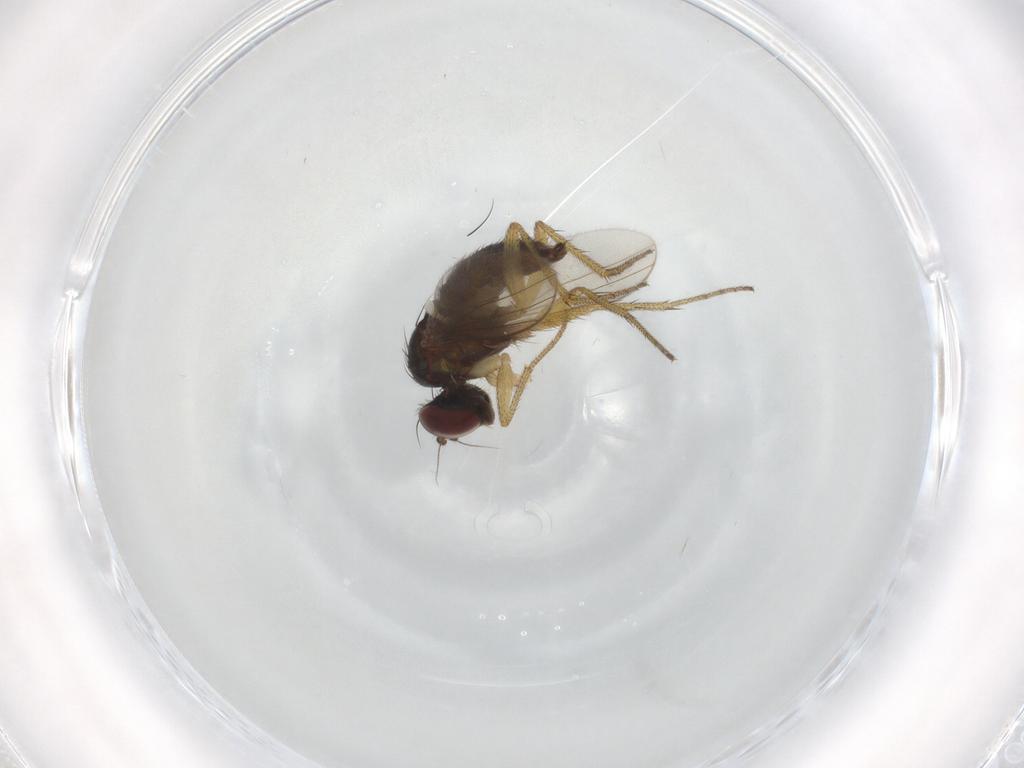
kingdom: Animalia
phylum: Arthropoda
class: Insecta
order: Diptera
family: Dolichopodidae
